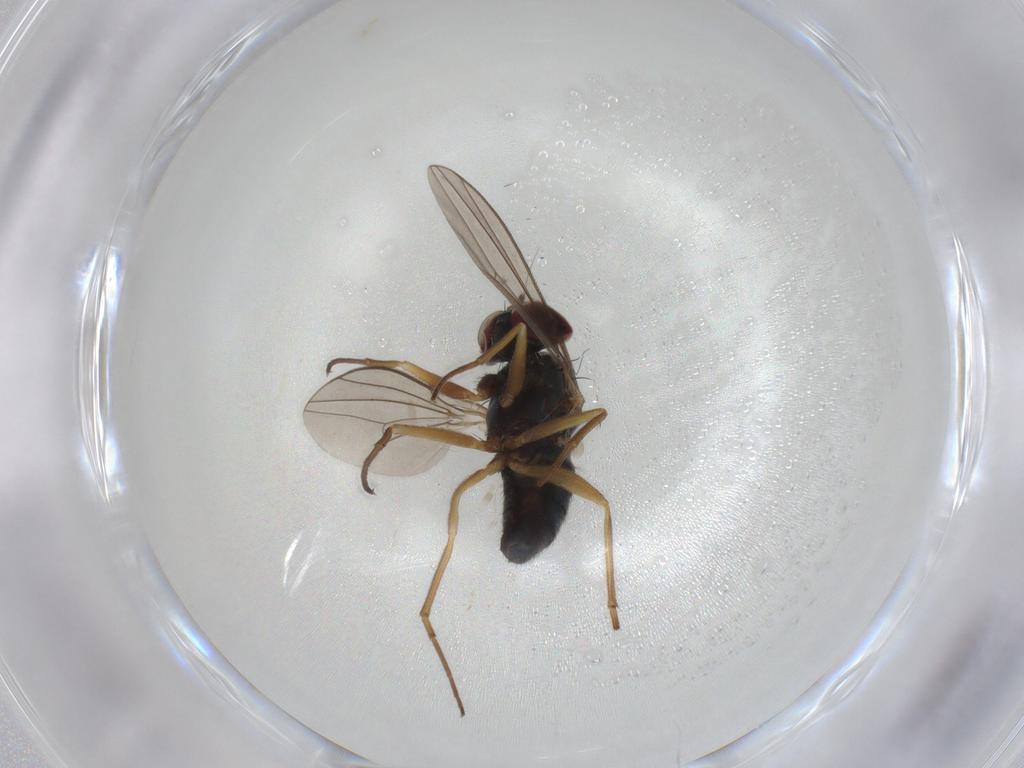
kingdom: Animalia
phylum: Arthropoda
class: Insecta
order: Diptera
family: Dolichopodidae
